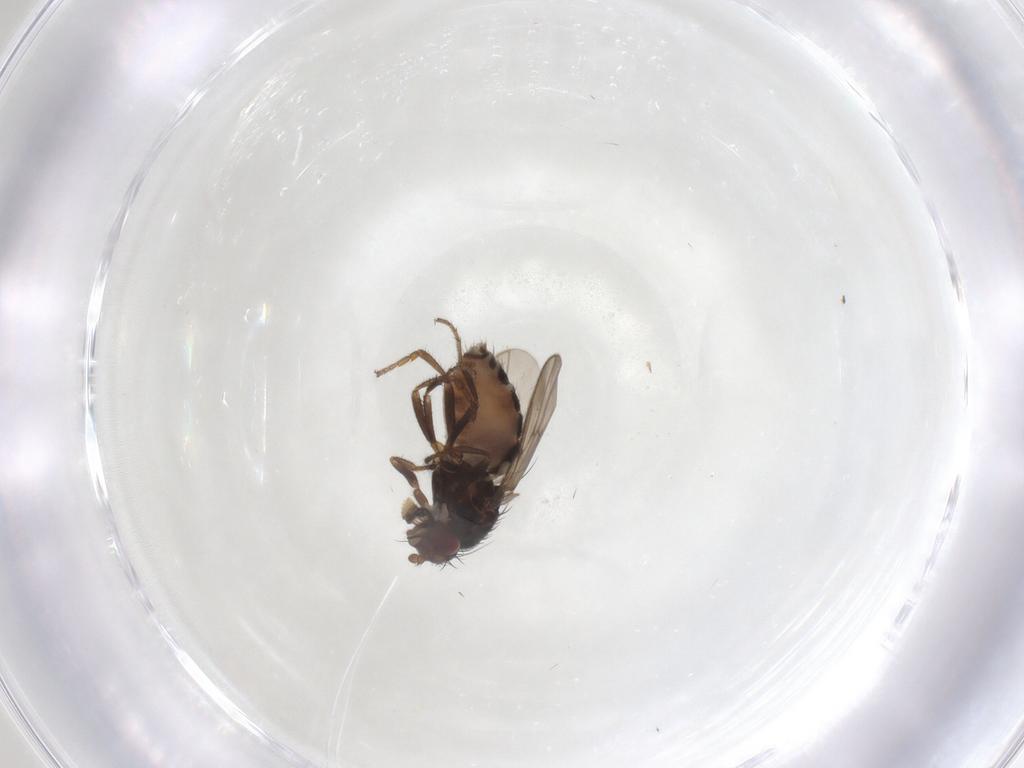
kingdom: Animalia
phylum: Arthropoda
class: Insecta
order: Diptera
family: Sphaeroceridae
